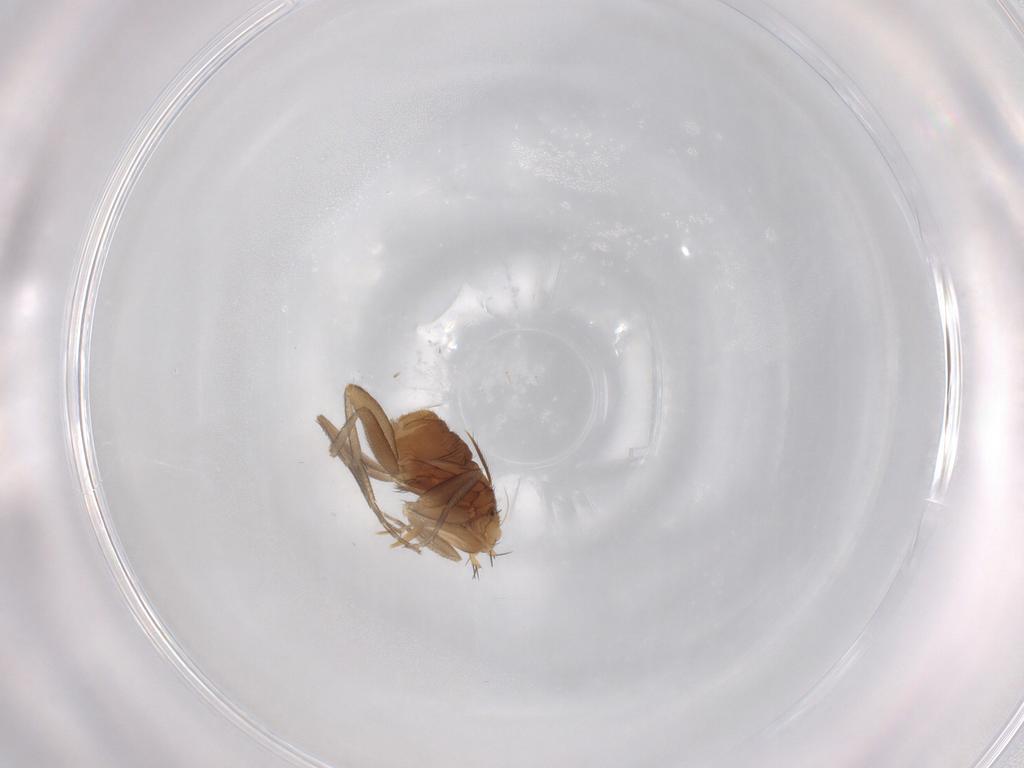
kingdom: Animalia
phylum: Arthropoda
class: Insecta
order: Diptera
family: Phoridae
